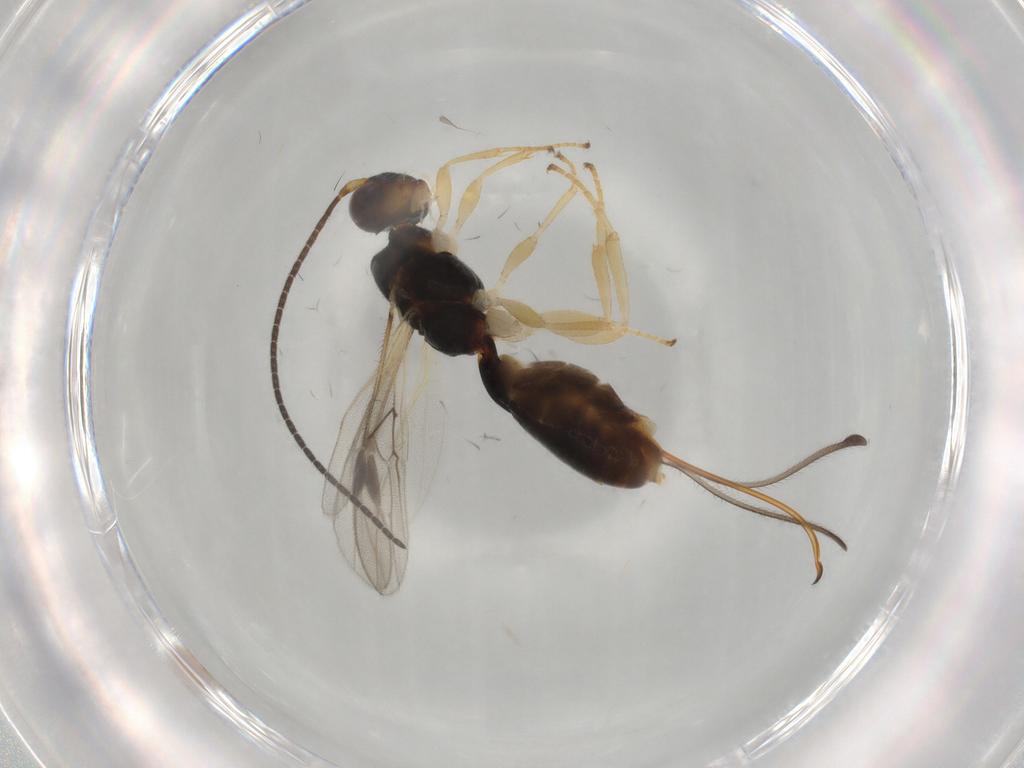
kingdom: Animalia
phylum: Arthropoda
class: Insecta
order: Hymenoptera
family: Mymaridae
